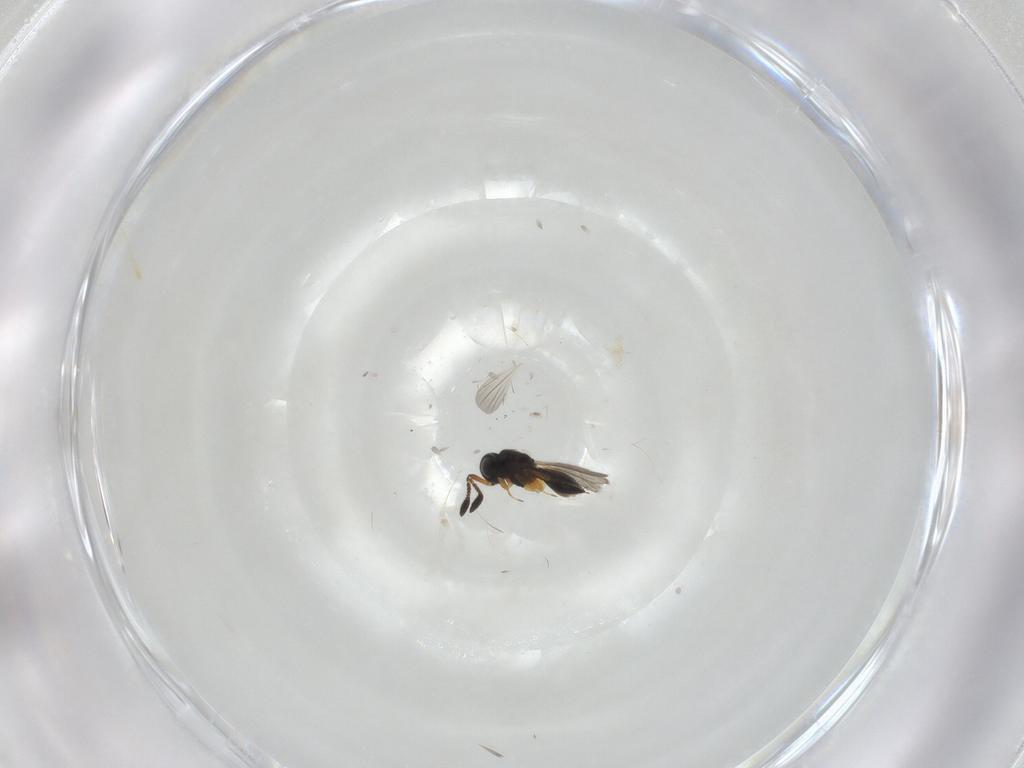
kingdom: Animalia
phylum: Arthropoda
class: Insecta
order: Hymenoptera
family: Scelionidae
